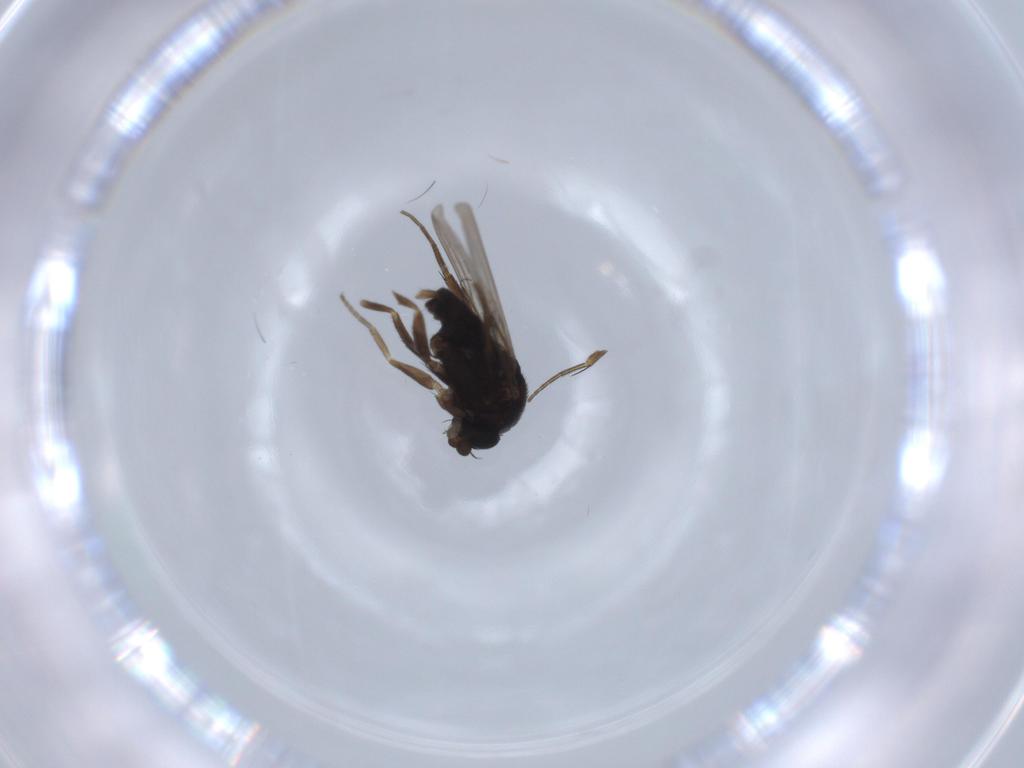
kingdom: Animalia
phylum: Arthropoda
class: Insecta
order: Diptera
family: Phoridae
